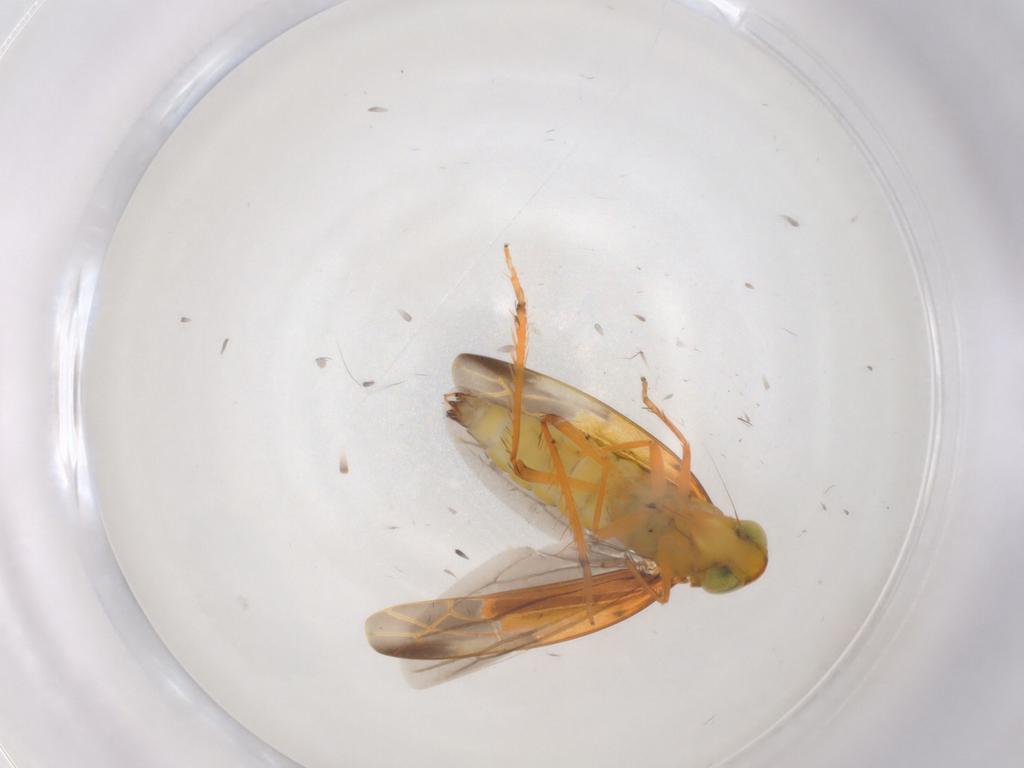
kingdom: Animalia
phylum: Arthropoda
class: Insecta
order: Hemiptera
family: Cicadellidae
